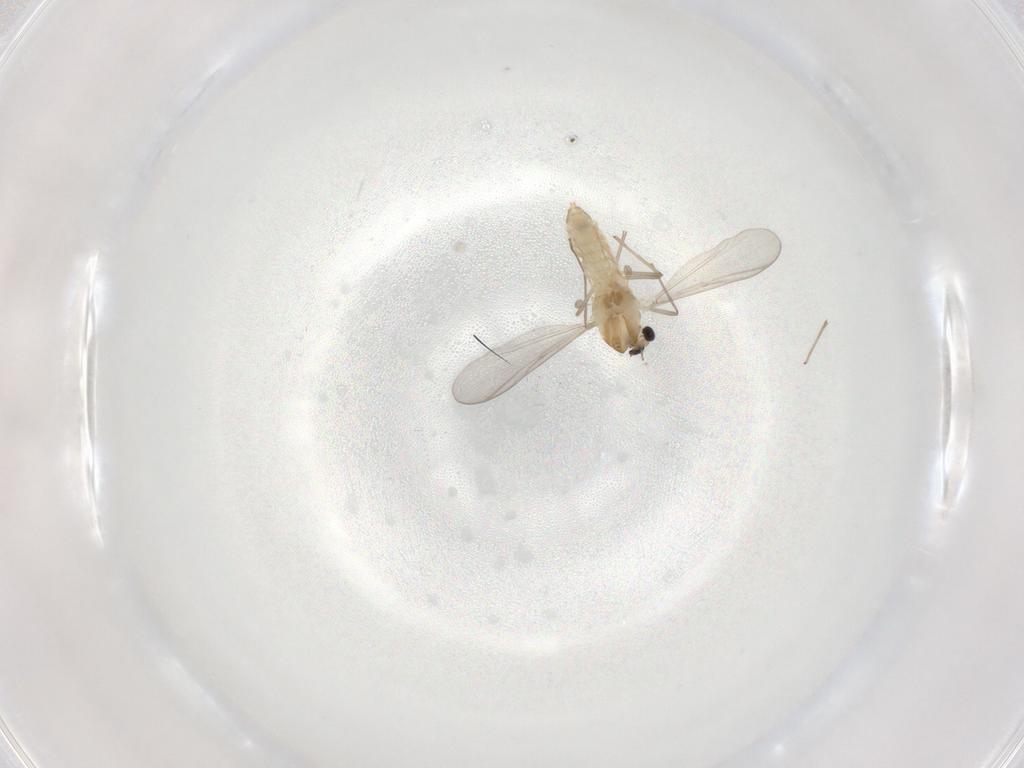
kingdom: Animalia
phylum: Arthropoda
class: Insecta
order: Diptera
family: Chironomidae
